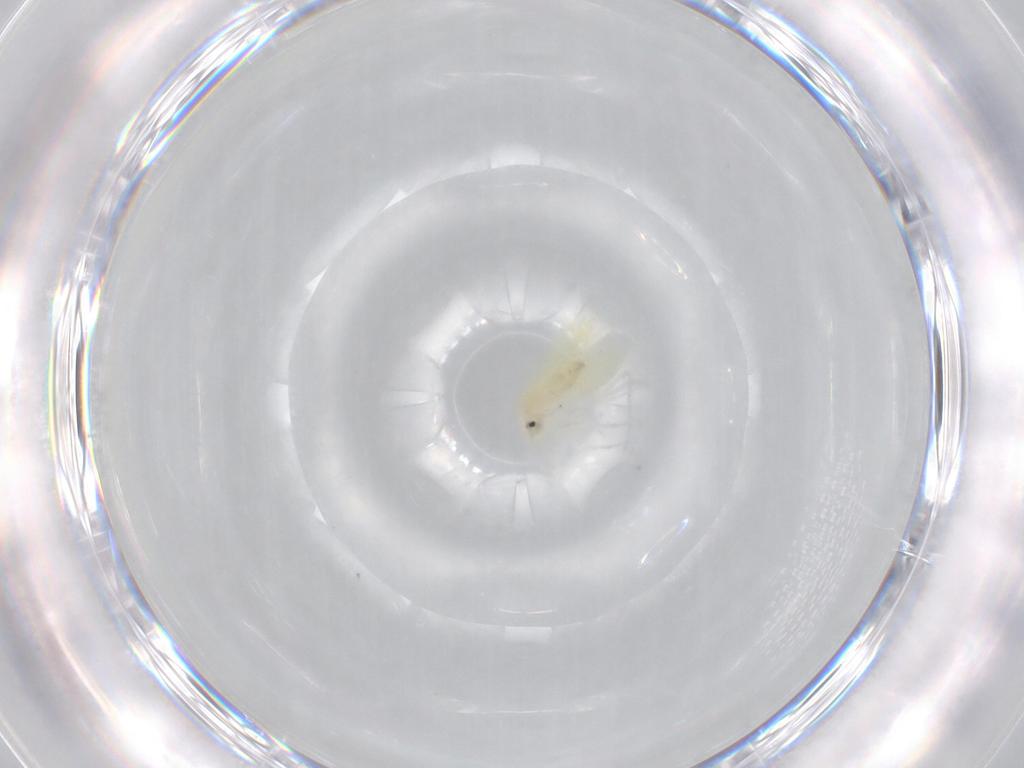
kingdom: Animalia
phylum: Arthropoda
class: Insecta
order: Hemiptera
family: Aleyrodidae
